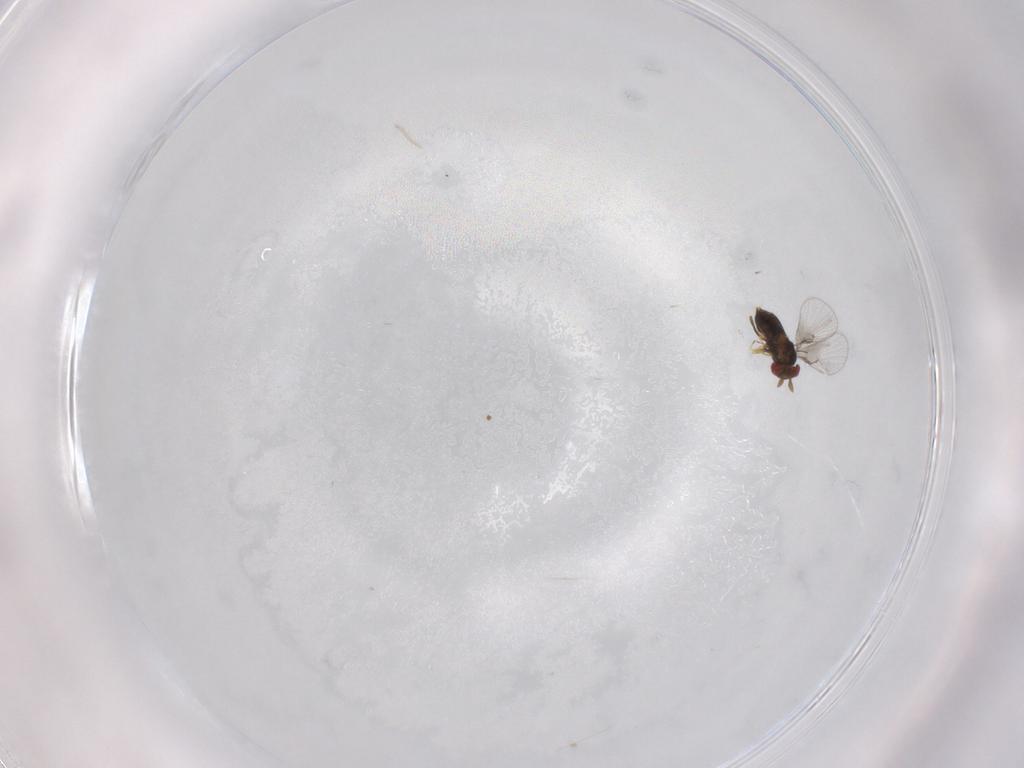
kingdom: Animalia
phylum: Arthropoda
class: Insecta
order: Hymenoptera
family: Trichogrammatidae
